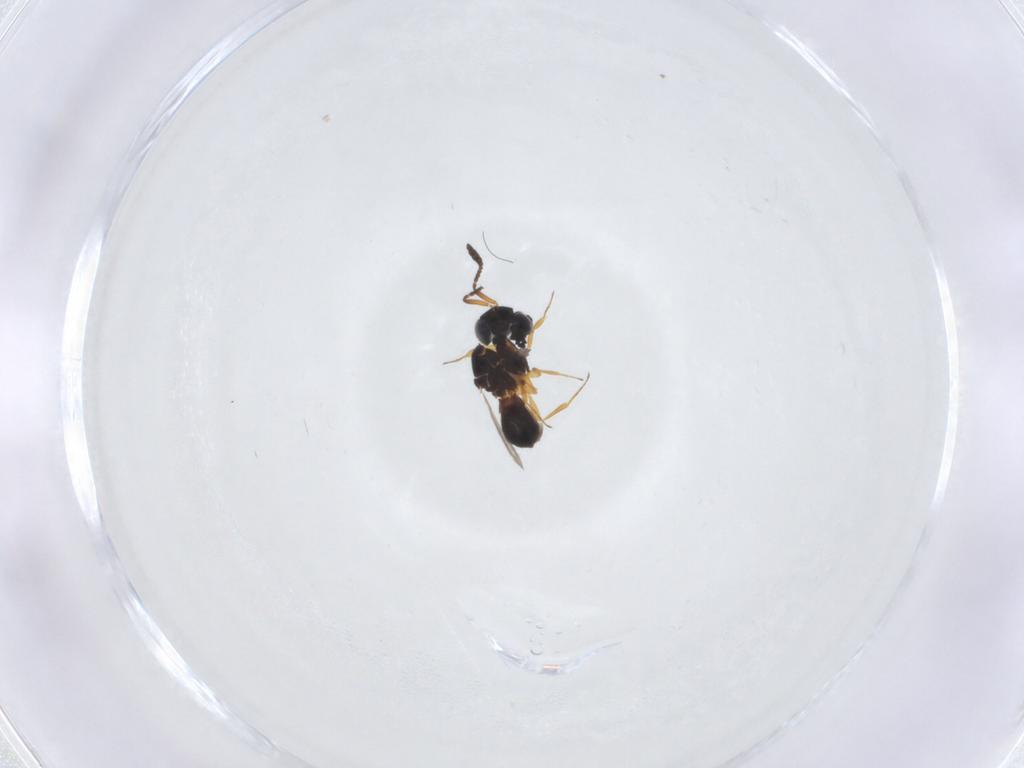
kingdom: Animalia
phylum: Arthropoda
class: Insecta
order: Hymenoptera
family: Scelionidae
